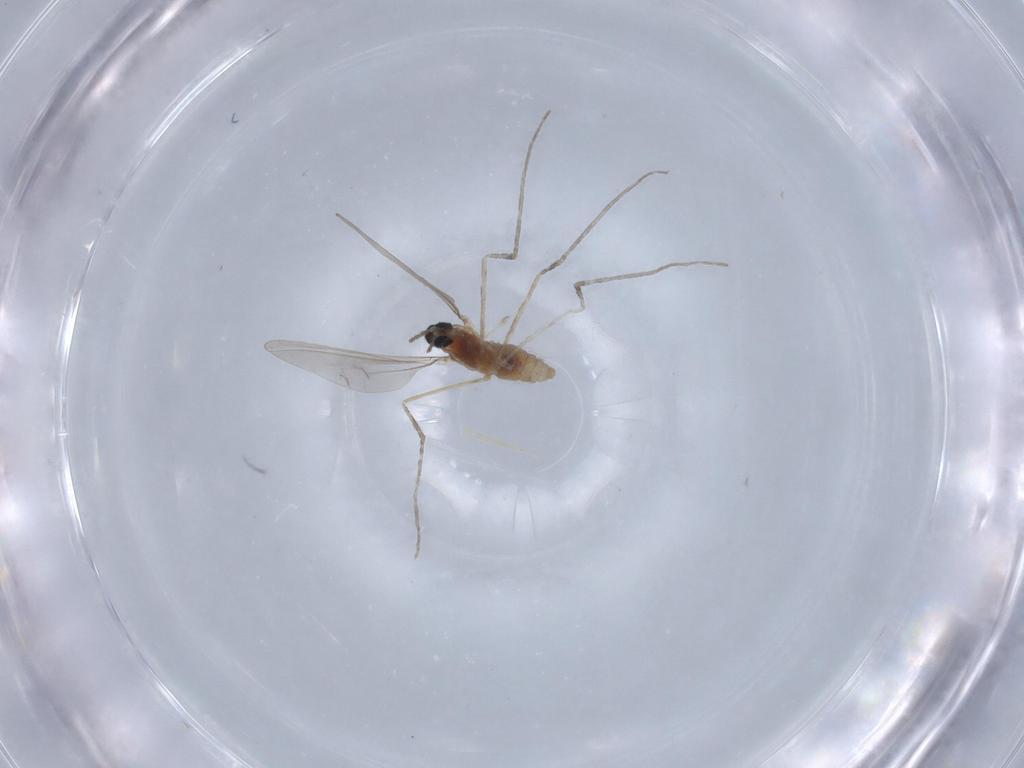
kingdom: Animalia
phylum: Arthropoda
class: Insecta
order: Diptera
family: Cecidomyiidae
